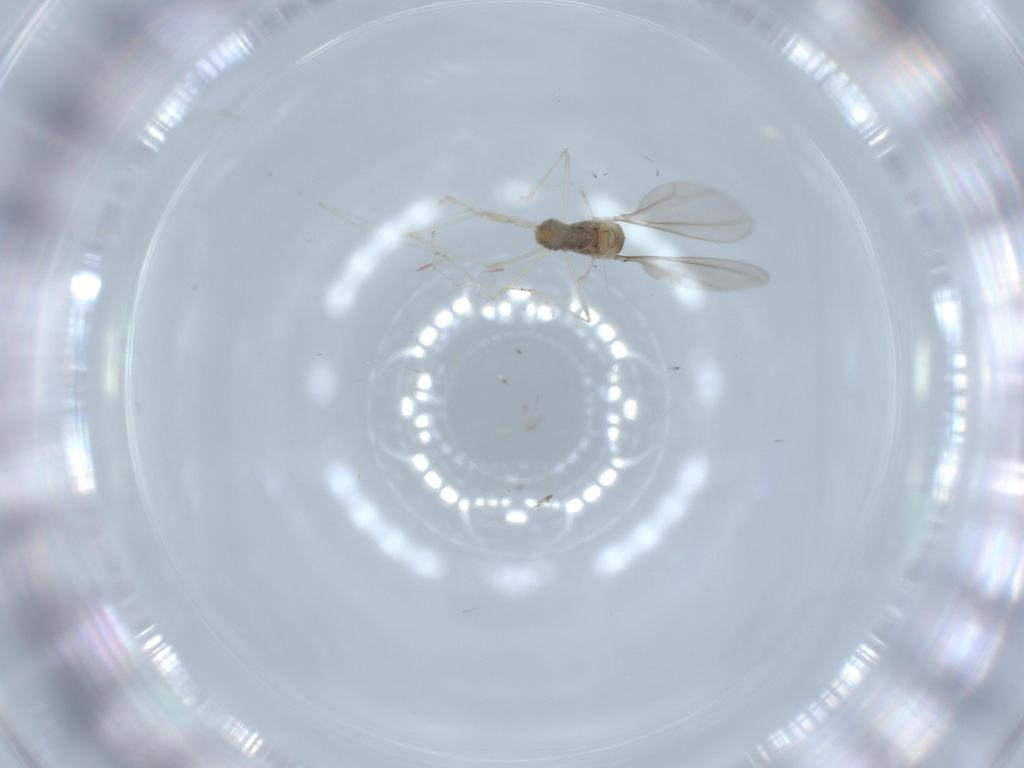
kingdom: Animalia
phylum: Arthropoda
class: Insecta
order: Diptera
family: Cecidomyiidae
